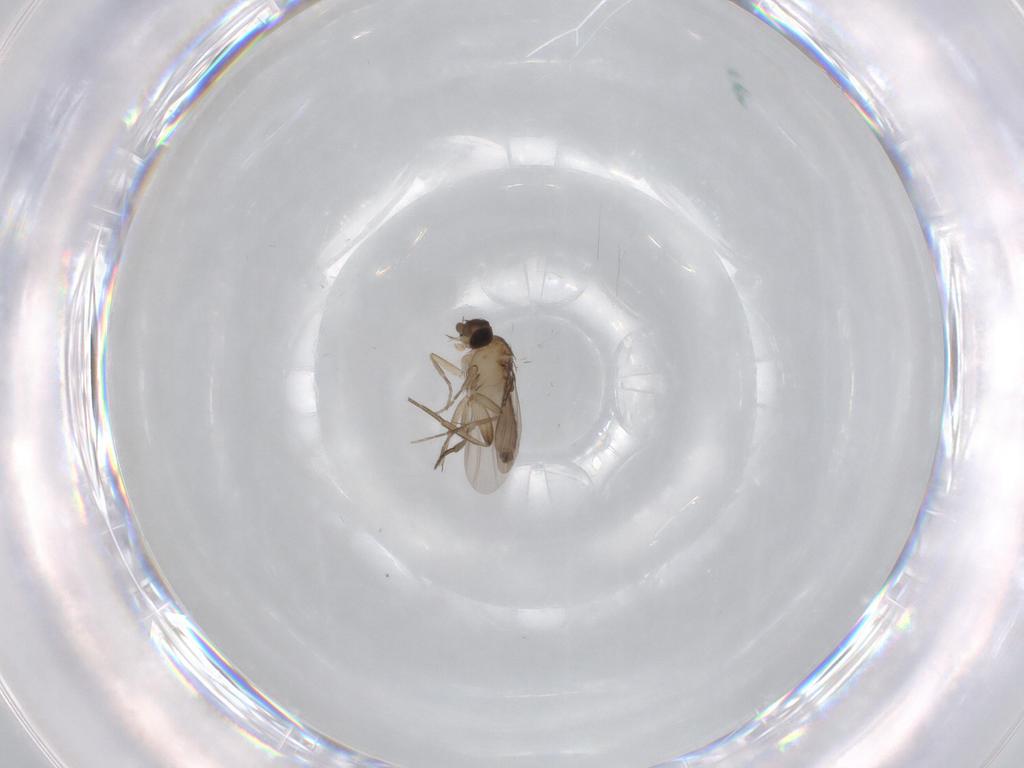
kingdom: Animalia
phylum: Arthropoda
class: Insecta
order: Diptera
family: Phoridae
